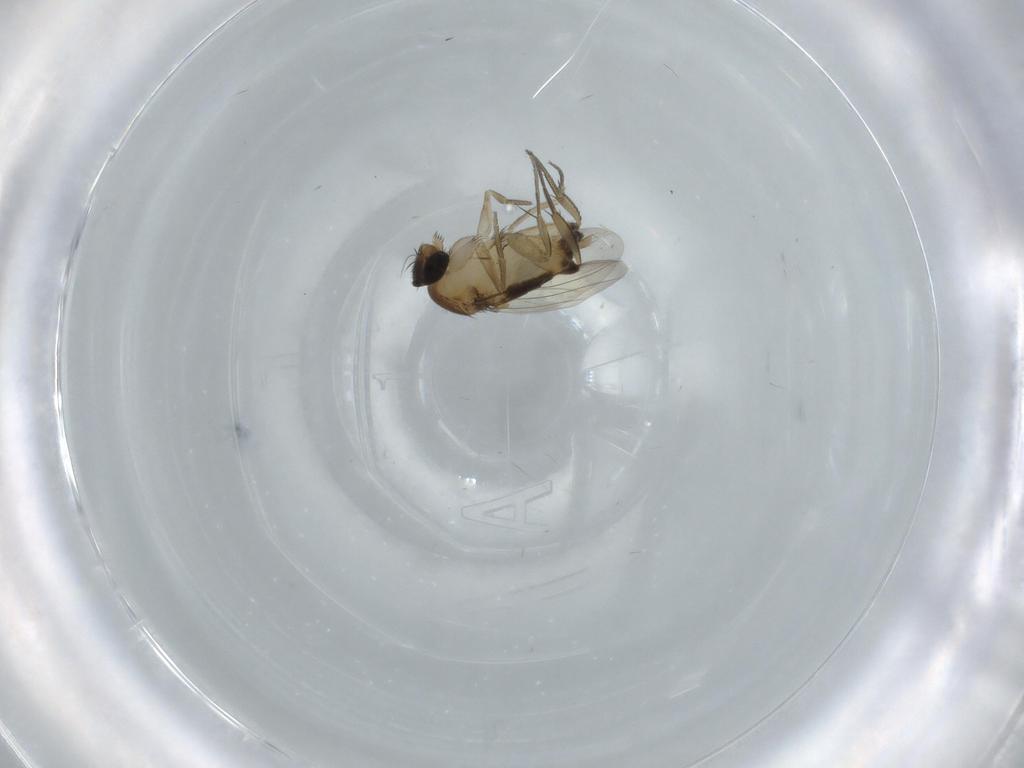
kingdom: Animalia
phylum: Arthropoda
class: Insecta
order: Diptera
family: Phoridae
